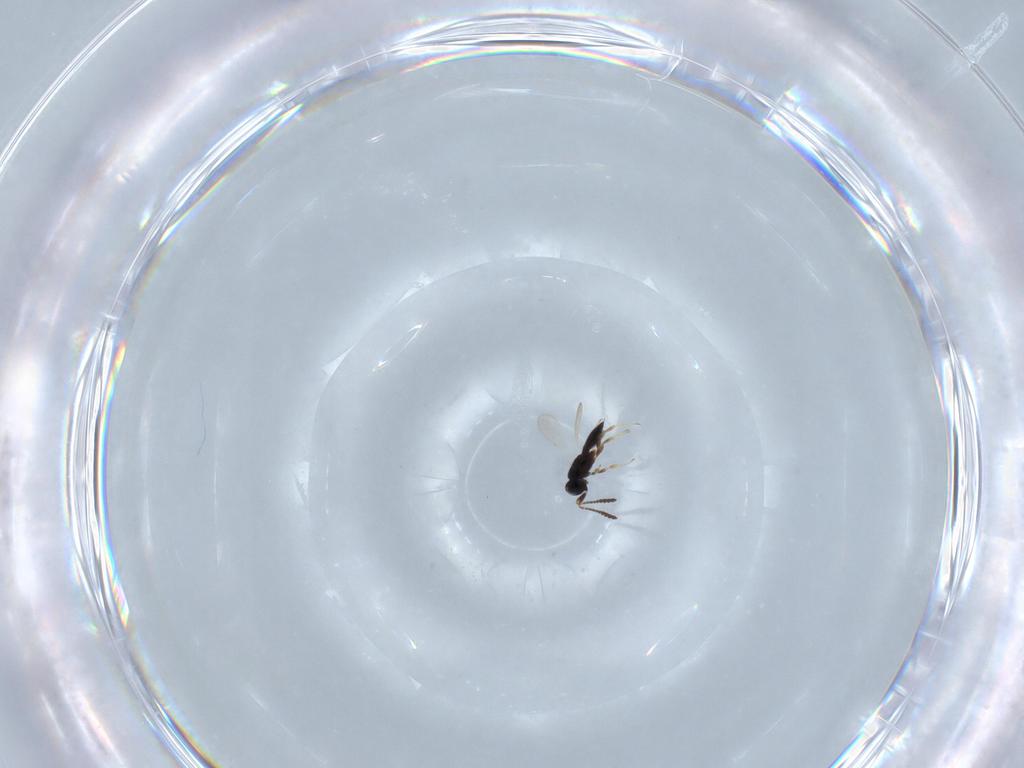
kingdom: Animalia
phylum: Arthropoda
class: Insecta
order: Hymenoptera
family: Scelionidae
